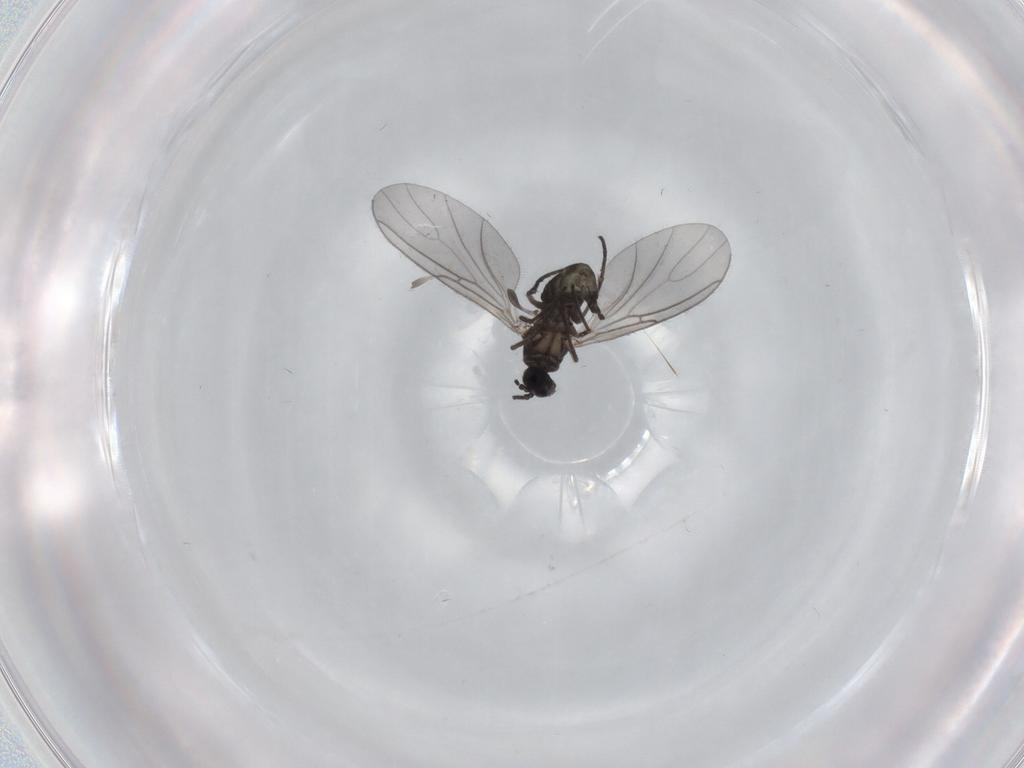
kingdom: Animalia
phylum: Arthropoda
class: Insecta
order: Diptera
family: Sciaridae
